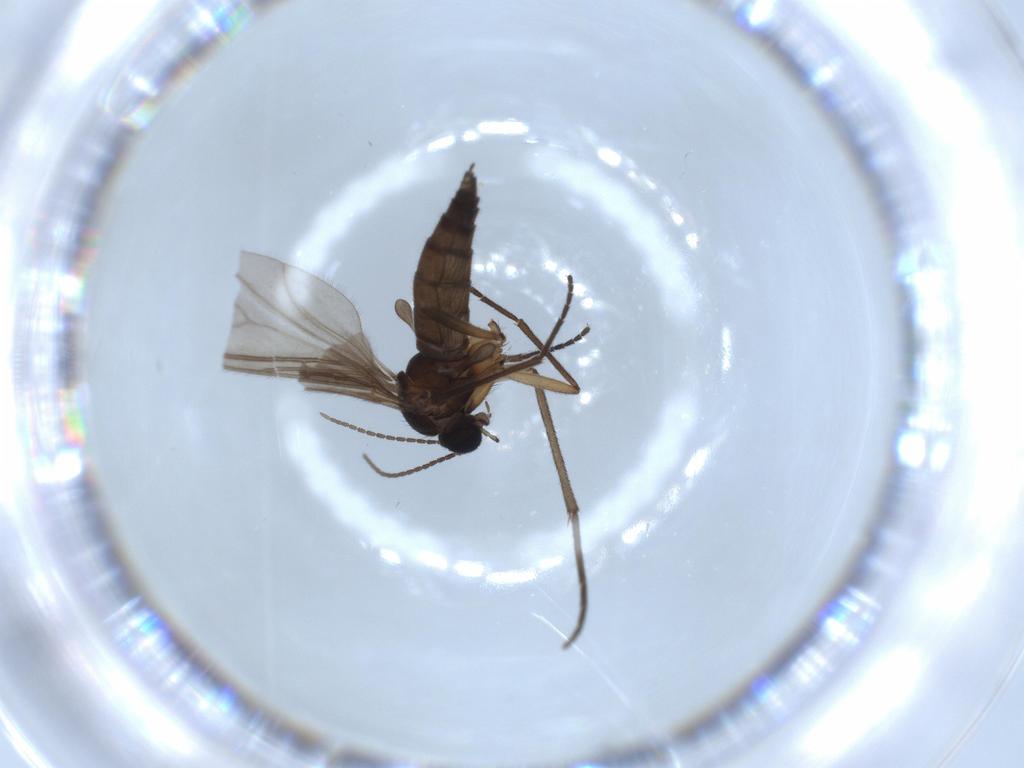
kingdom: Animalia
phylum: Arthropoda
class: Insecta
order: Diptera
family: Sciaridae
